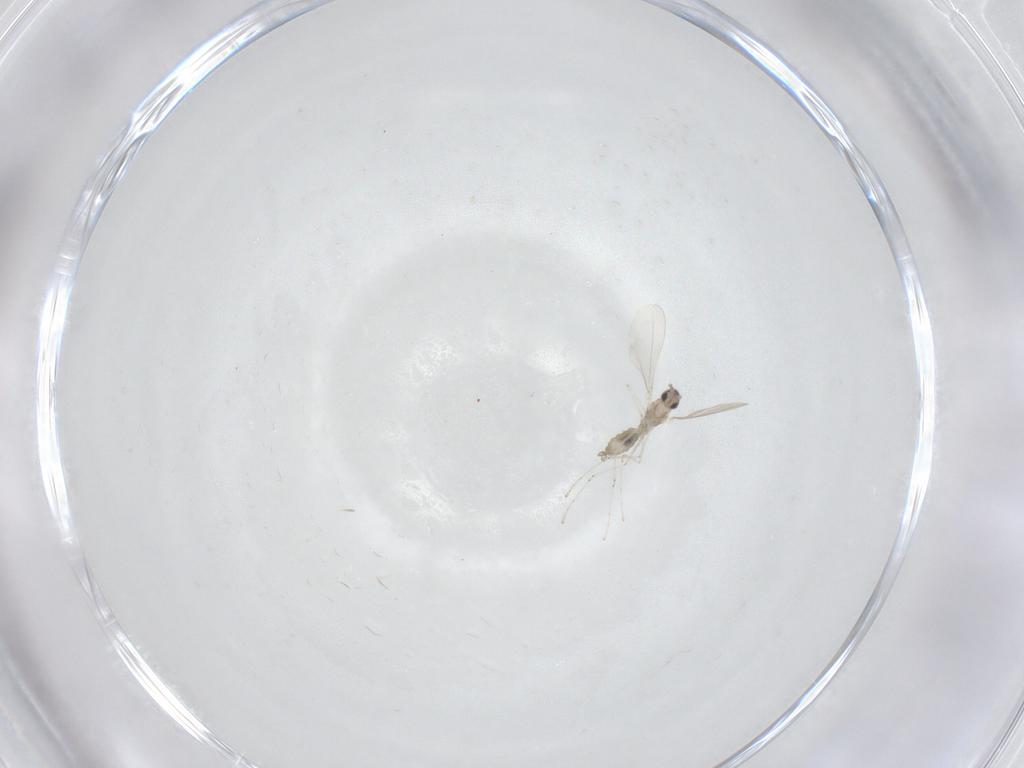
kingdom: Animalia
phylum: Arthropoda
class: Insecta
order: Diptera
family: Cecidomyiidae
